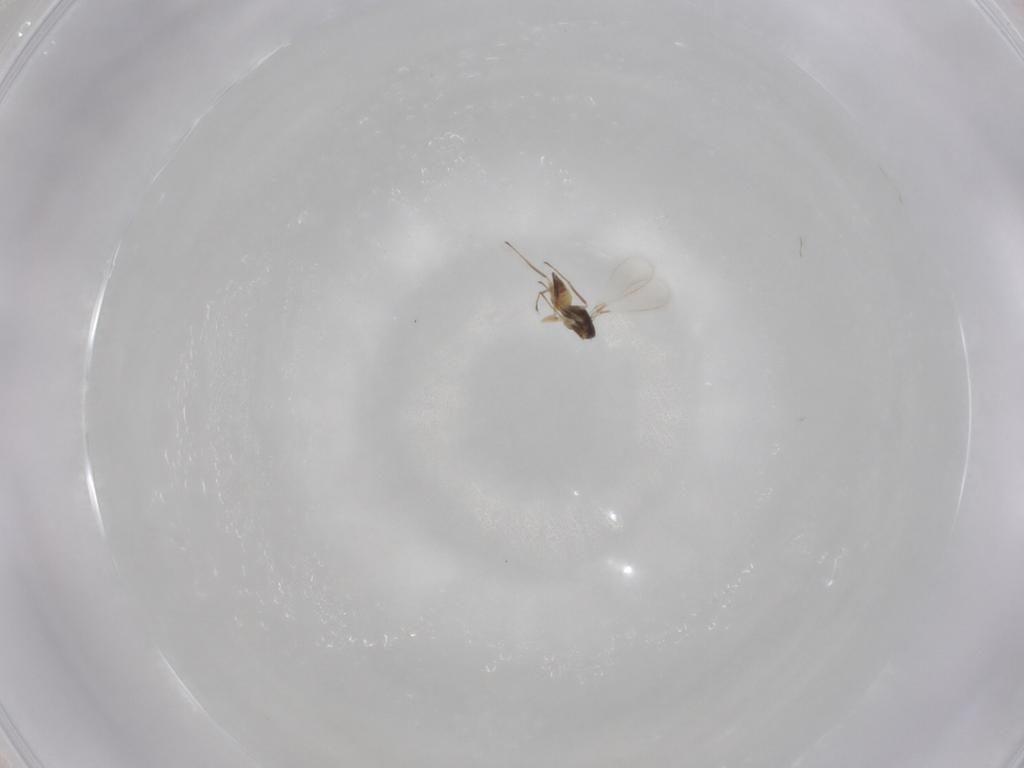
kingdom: Animalia
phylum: Arthropoda
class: Insecta
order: Hymenoptera
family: Mymaridae
